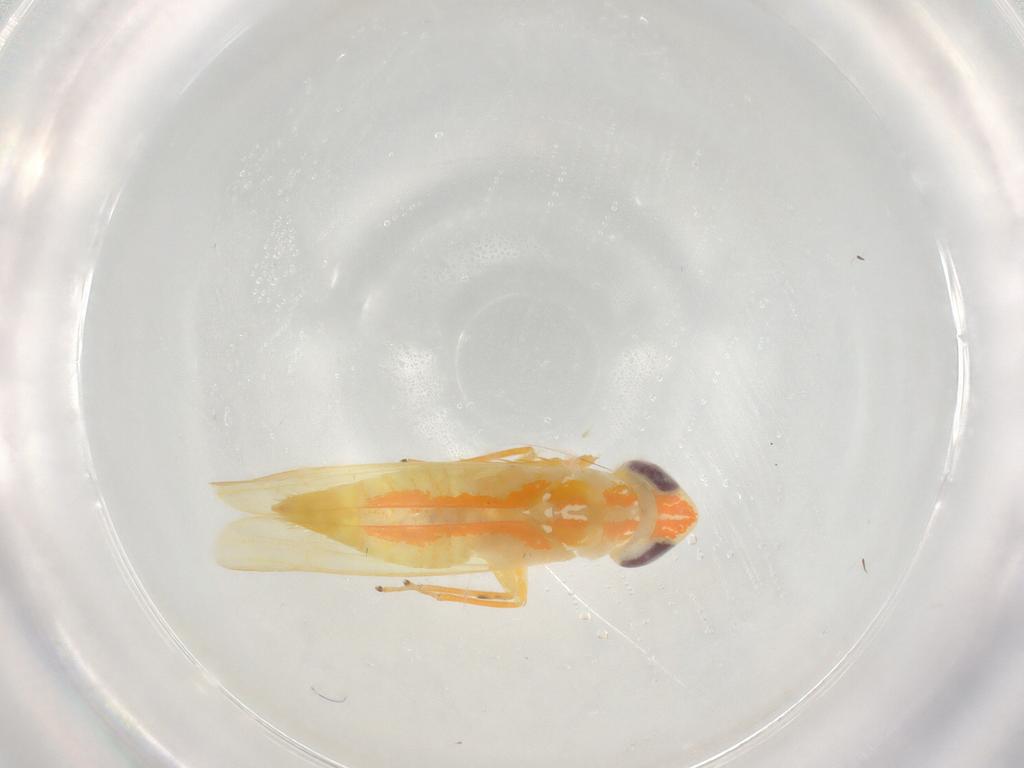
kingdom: Animalia
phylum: Arthropoda
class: Insecta
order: Hemiptera
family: Cicadellidae
